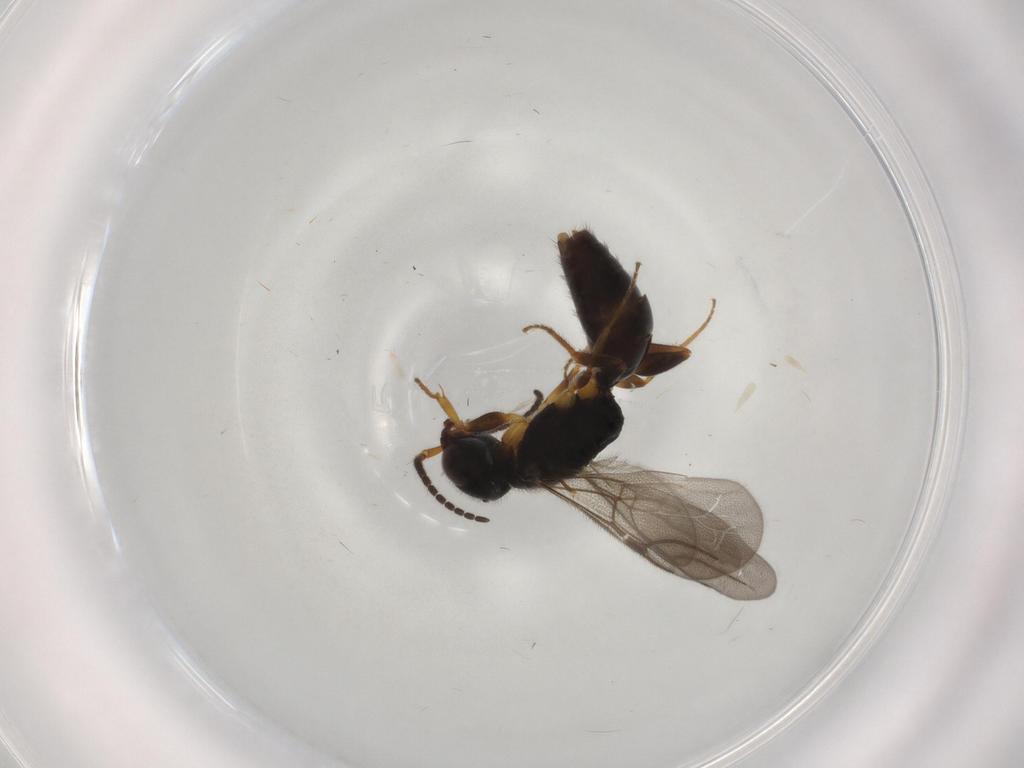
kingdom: Animalia
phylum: Arthropoda
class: Insecta
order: Hymenoptera
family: Bethylidae
